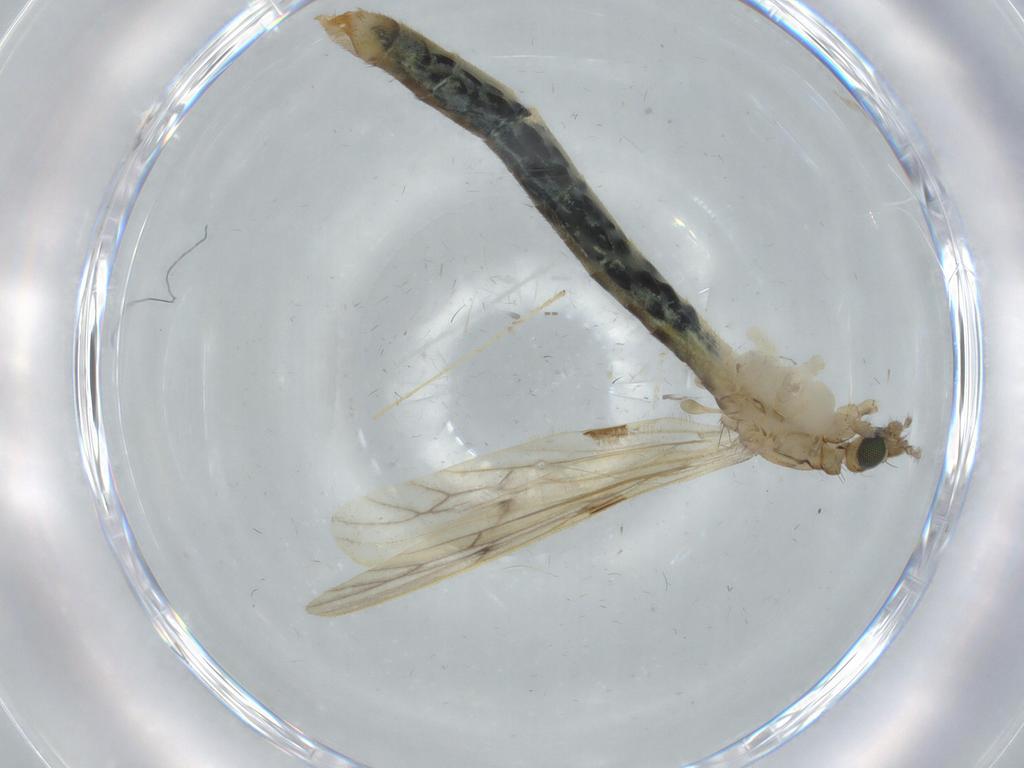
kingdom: Animalia
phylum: Arthropoda
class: Insecta
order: Diptera
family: Limoniidae
